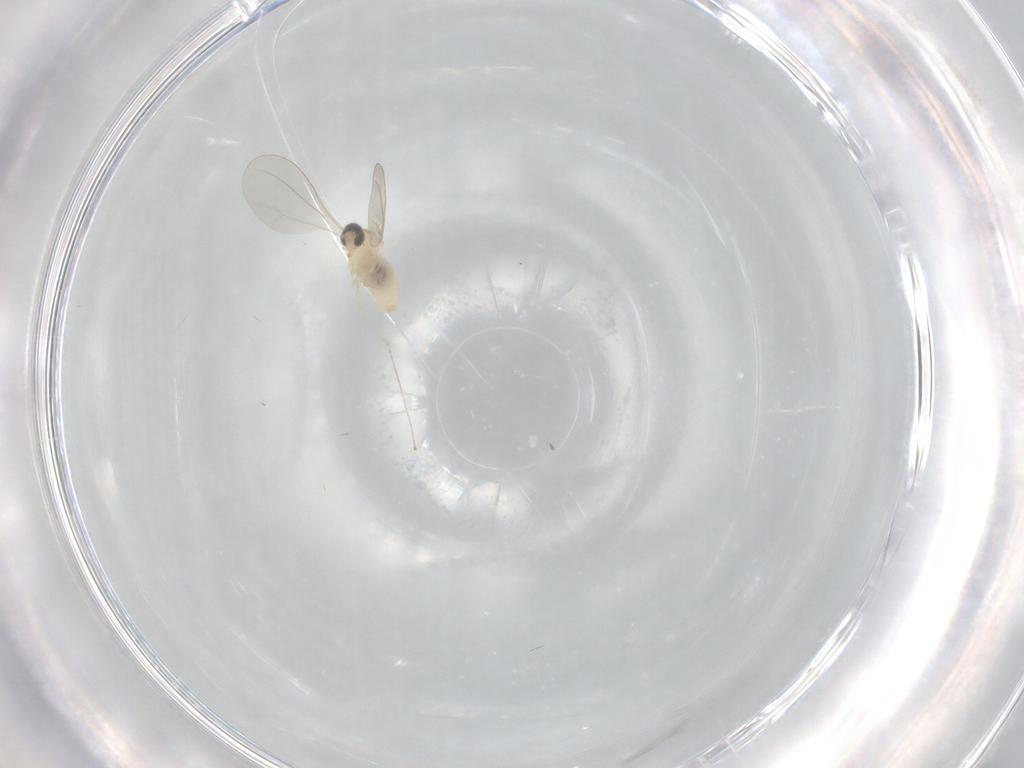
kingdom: Animalia
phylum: Arthropoda
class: Insecta
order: Diptera
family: Cecidomyiidae
